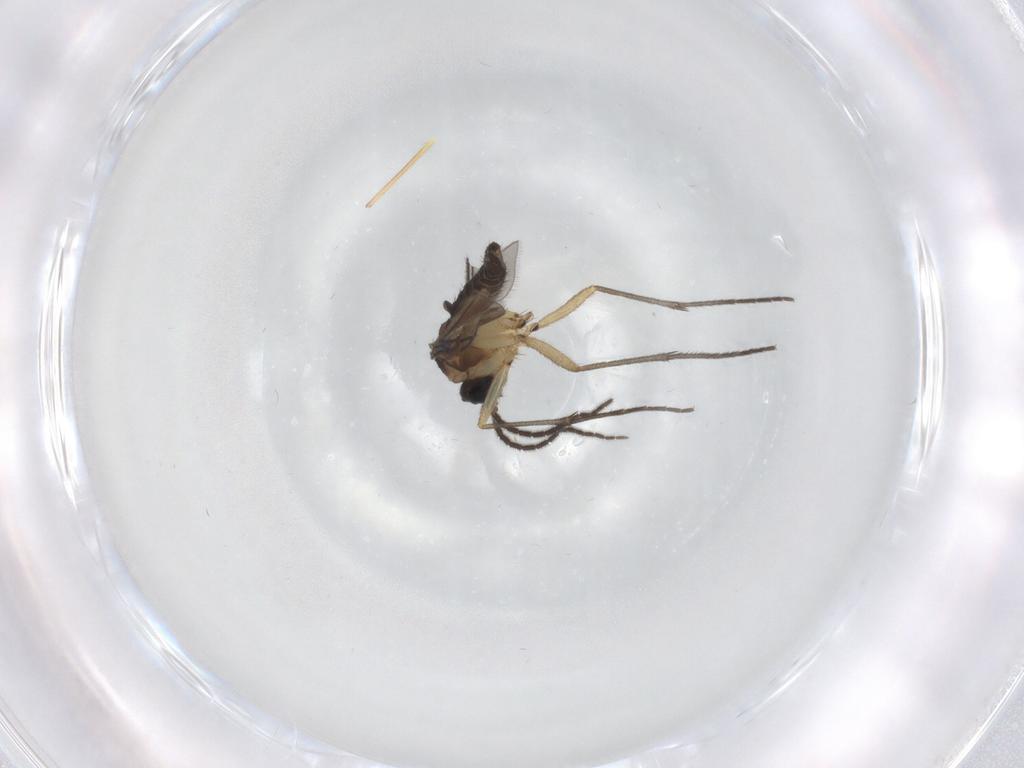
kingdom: Animalia
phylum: Arthropoda
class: Insecta
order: Diptera
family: Sciaridae
